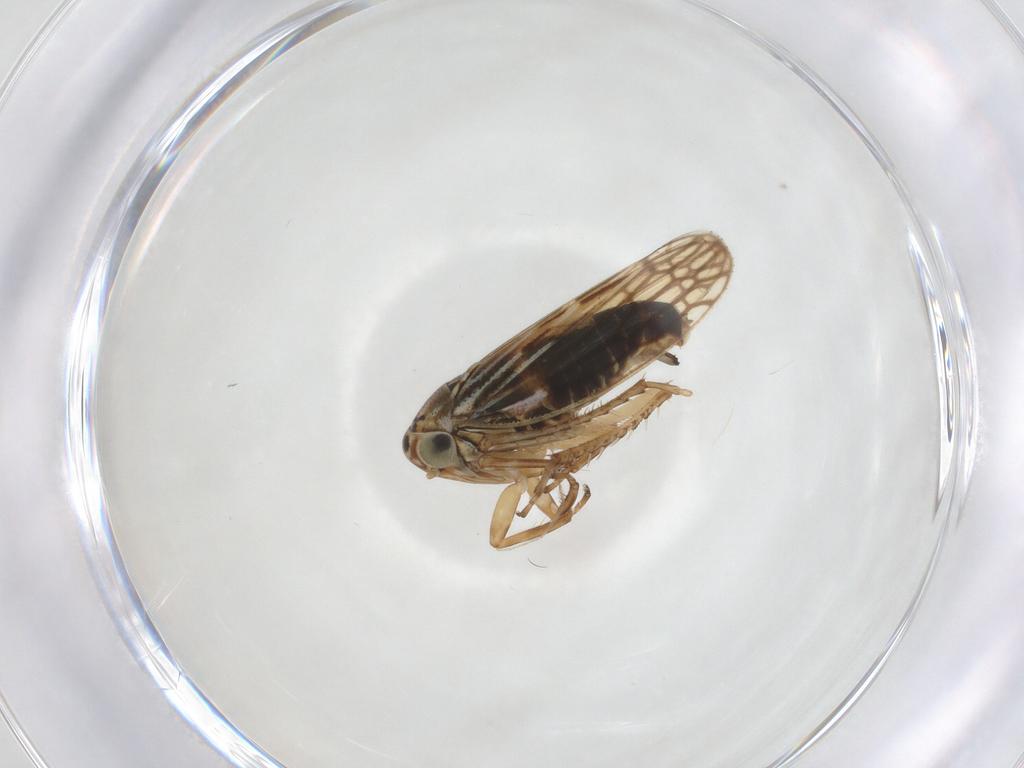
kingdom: Animalia
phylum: Arthropoda
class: Insecta
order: Hemiptera
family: Cicadellidae
